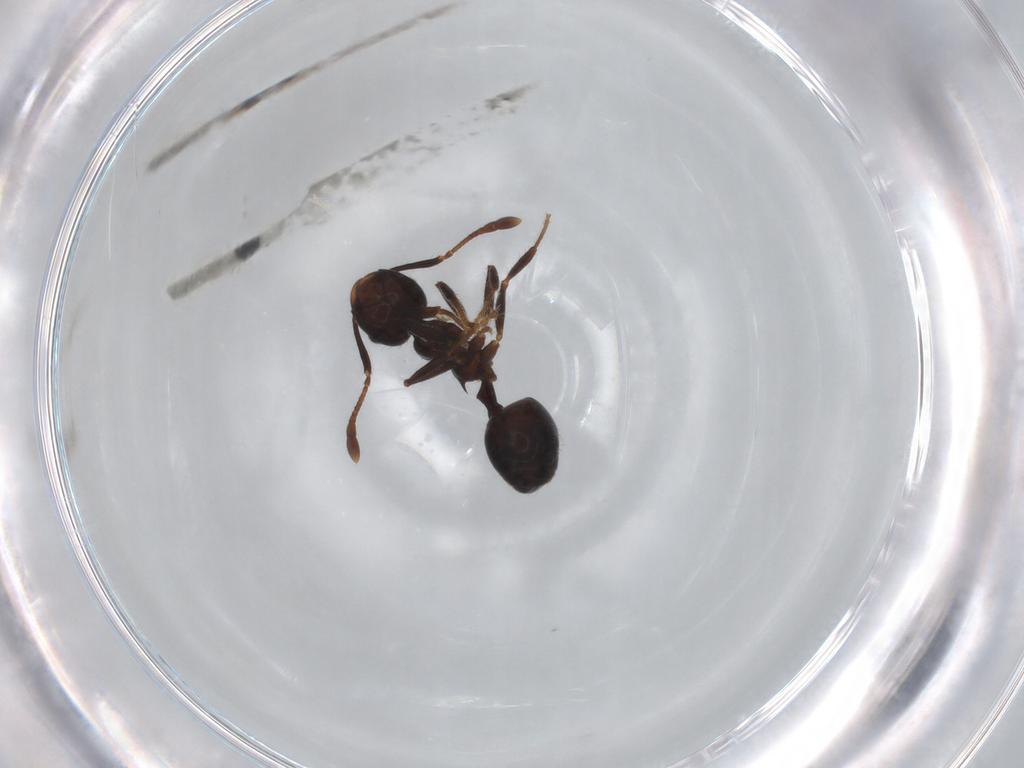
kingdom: Animalia
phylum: Arthropoda
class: Insecta
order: Hymenoptera
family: Formicidae
